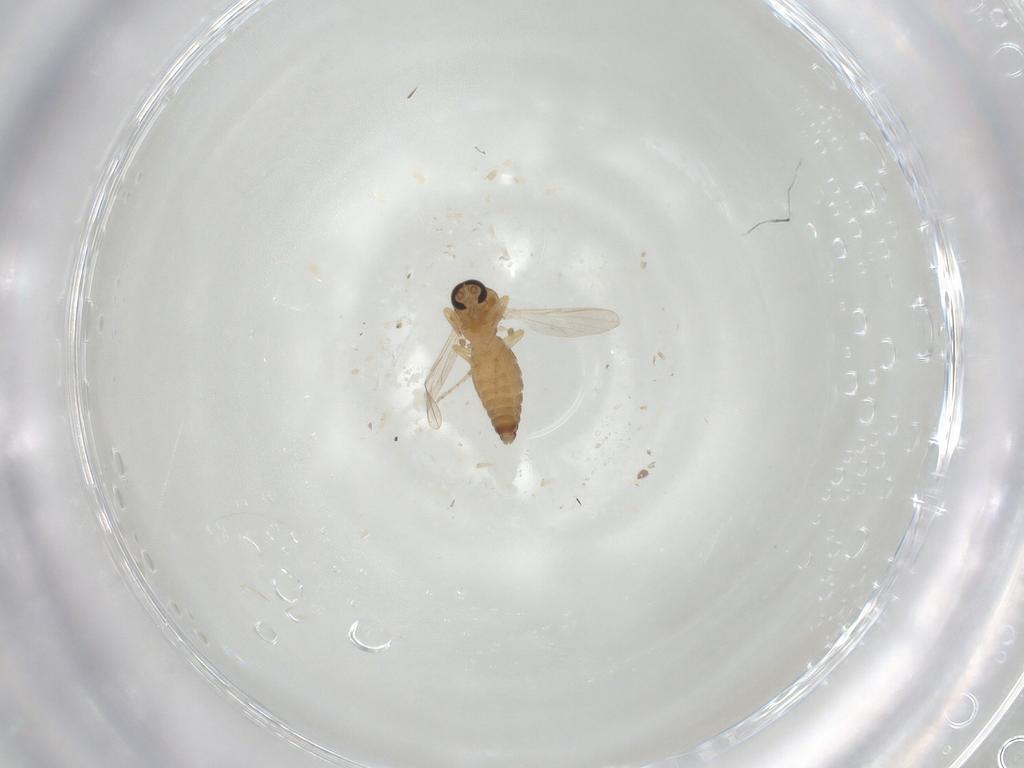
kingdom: Animalia
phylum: Arthropoda
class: Insecta
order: Diptera
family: Ceratopogonidae
